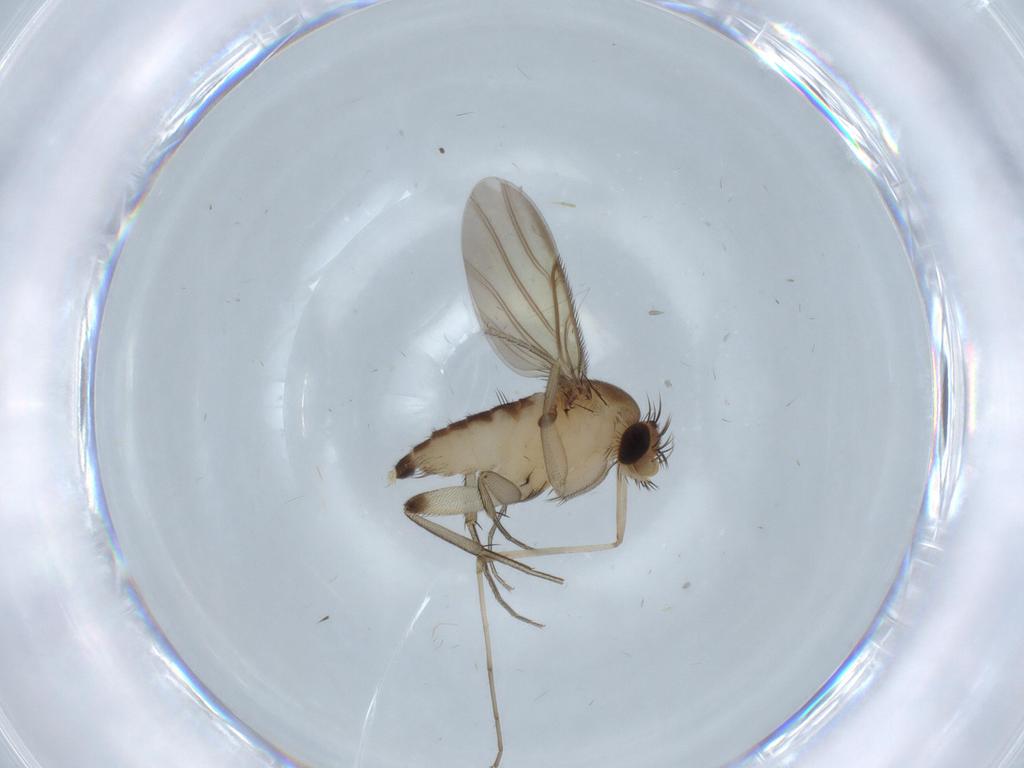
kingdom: Animalia
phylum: Arthropoda
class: Insecta
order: Diptera
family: Phoridae
